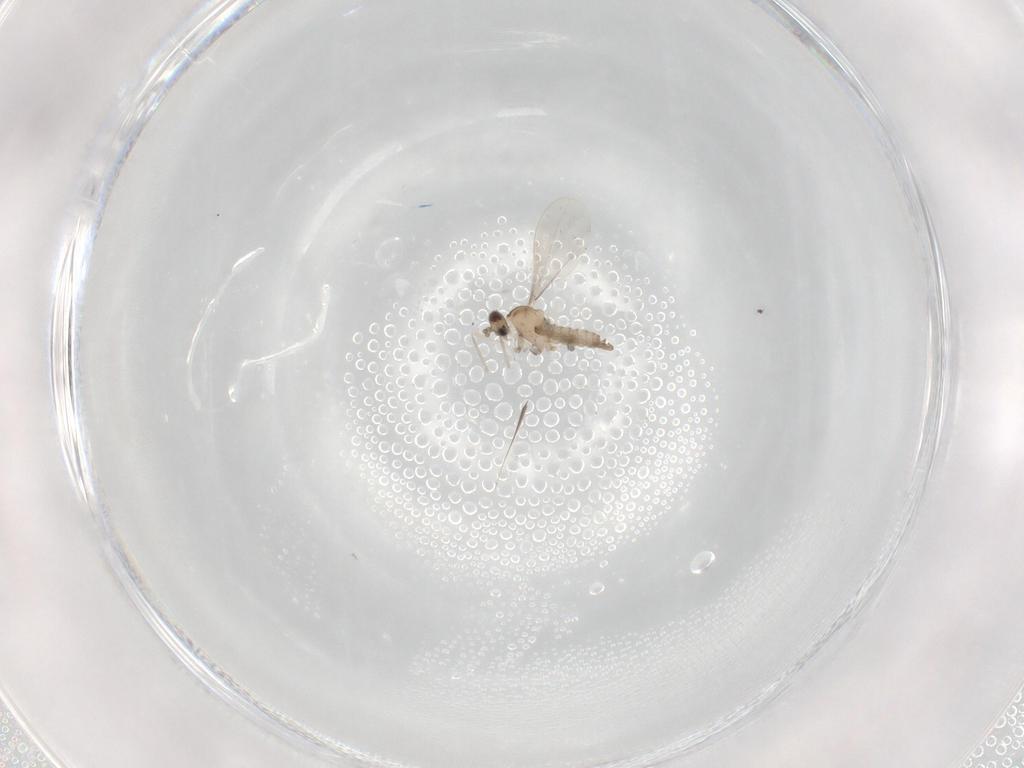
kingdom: Animalia
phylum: Arthropoda
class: Insecta
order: Diptera
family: Cecidomyiidae
